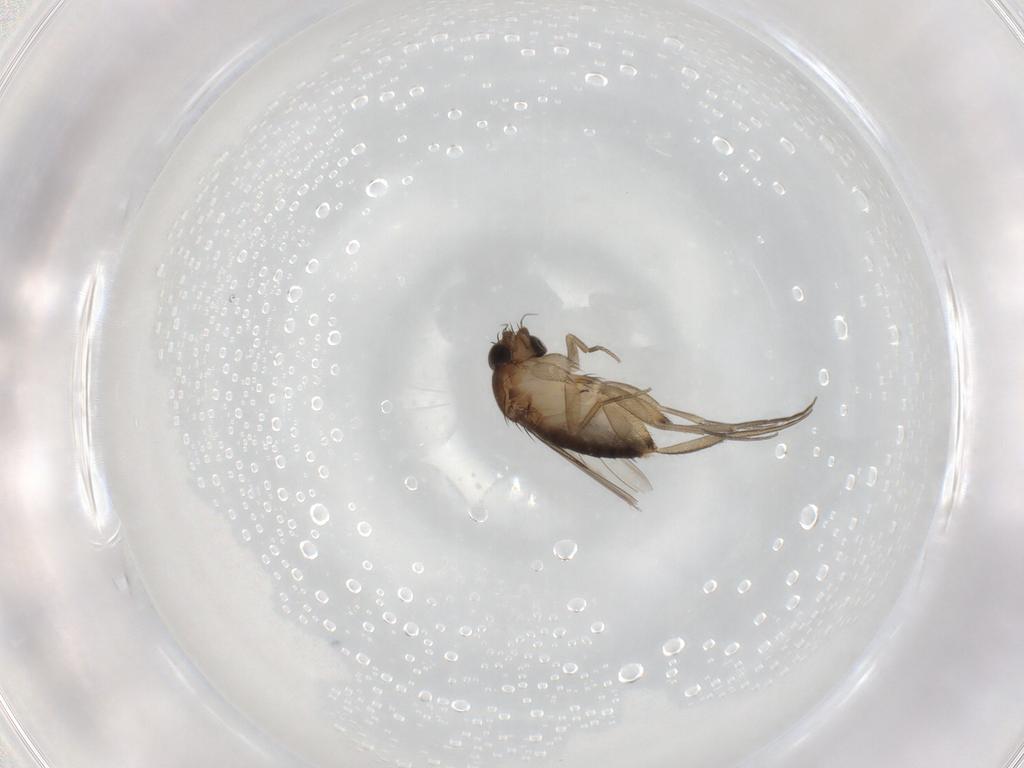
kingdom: Animalia
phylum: Arthropoda
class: Insecta
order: Diptera
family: Phoridae
